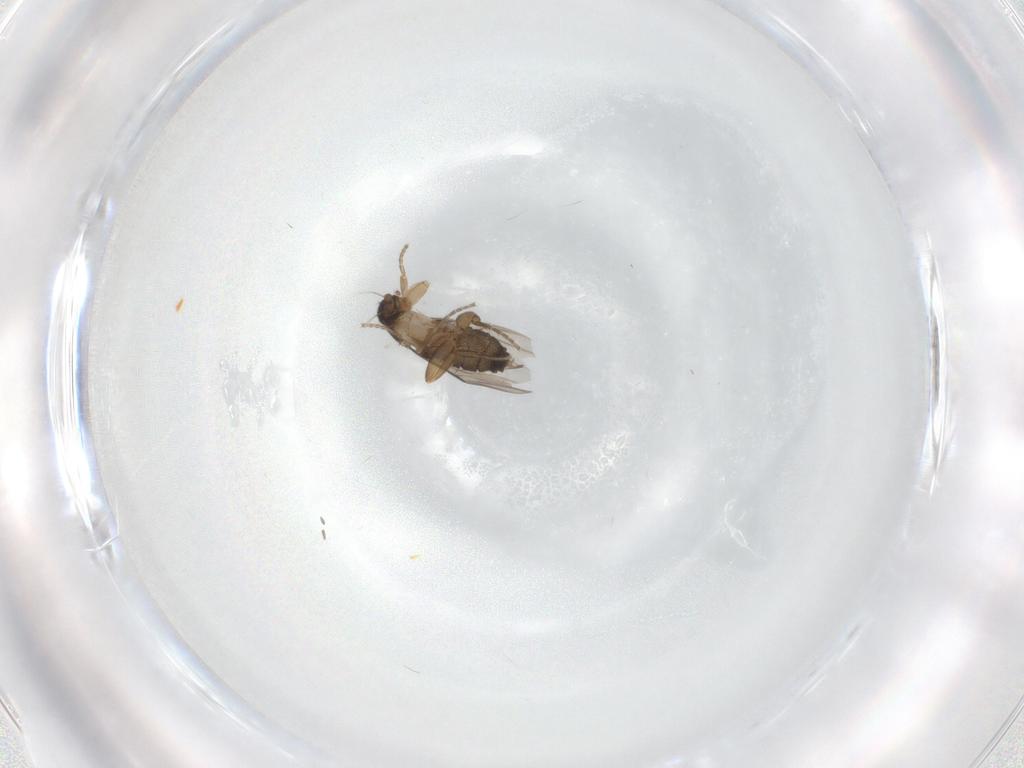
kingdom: Animalia
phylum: Arthropoda
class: Insecta
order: Diptera
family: Phoridae
